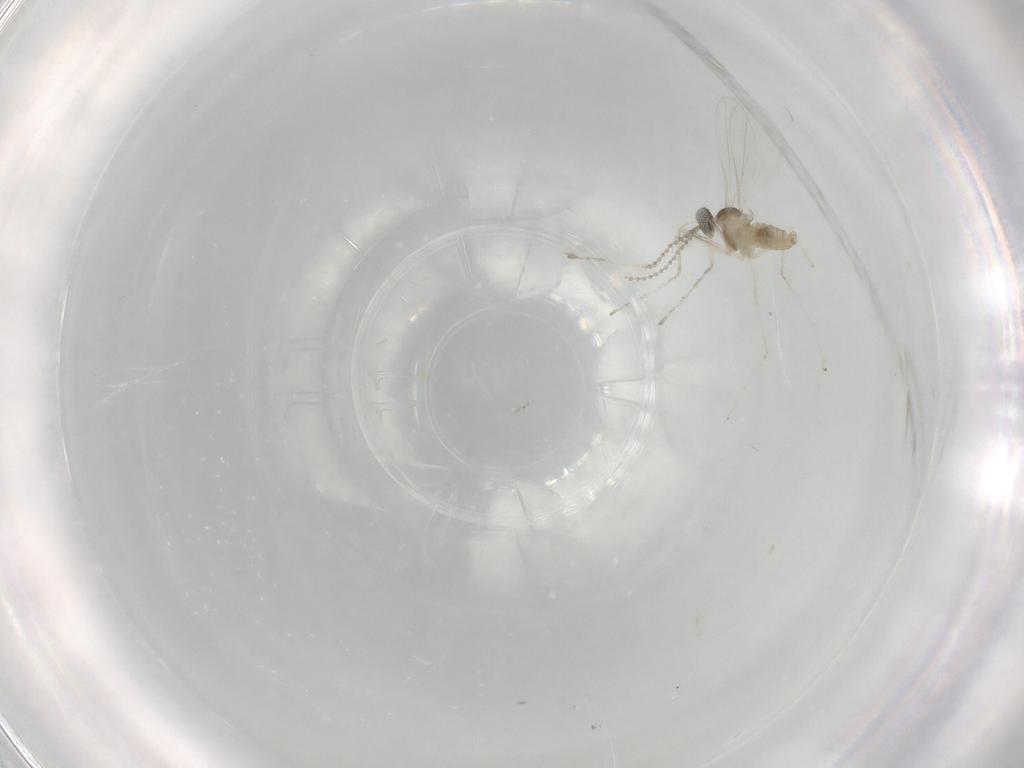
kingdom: Animalia
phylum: Arthropoda
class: Insecta
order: Diptera
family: Cecidomyiidae
